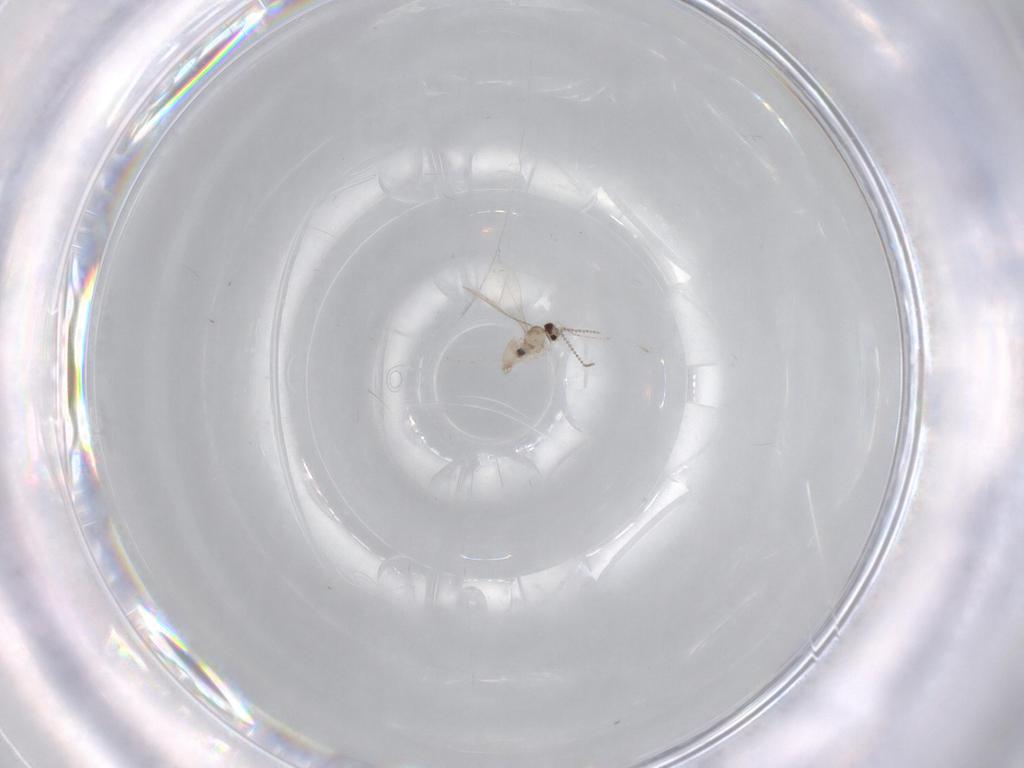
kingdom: Animalia
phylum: Arthropoda
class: Insecta
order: Diptera
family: Cecidomyiidae
